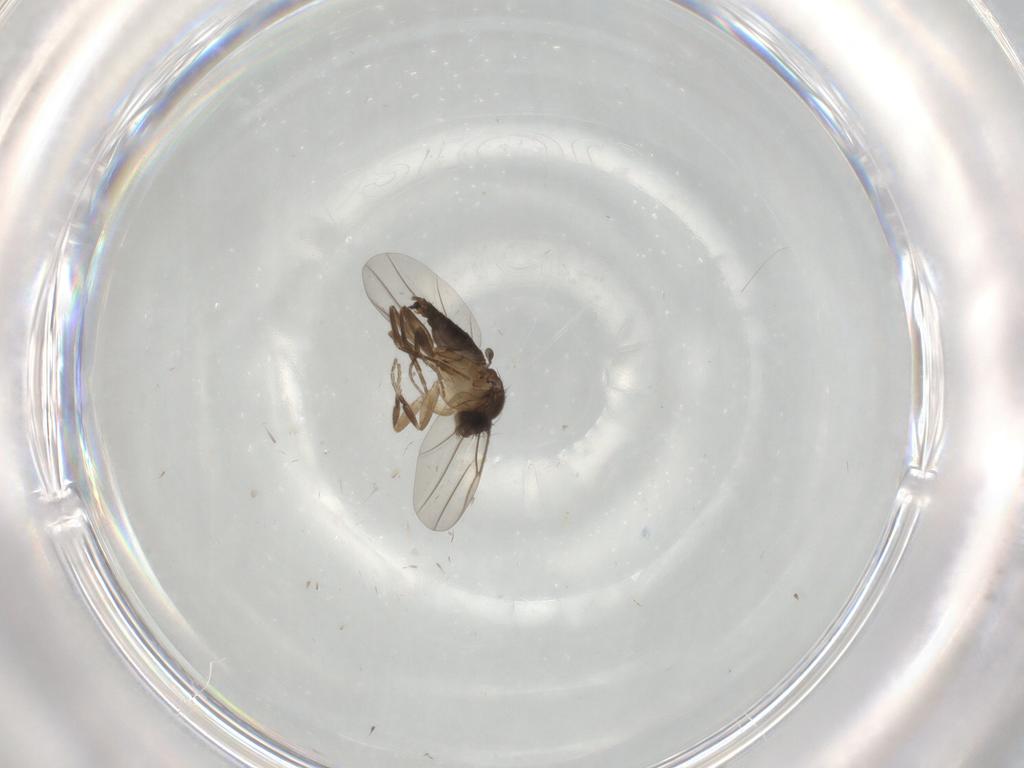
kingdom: Animalia
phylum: Arthropoda
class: Insecta
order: Diptera
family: Phoridae
